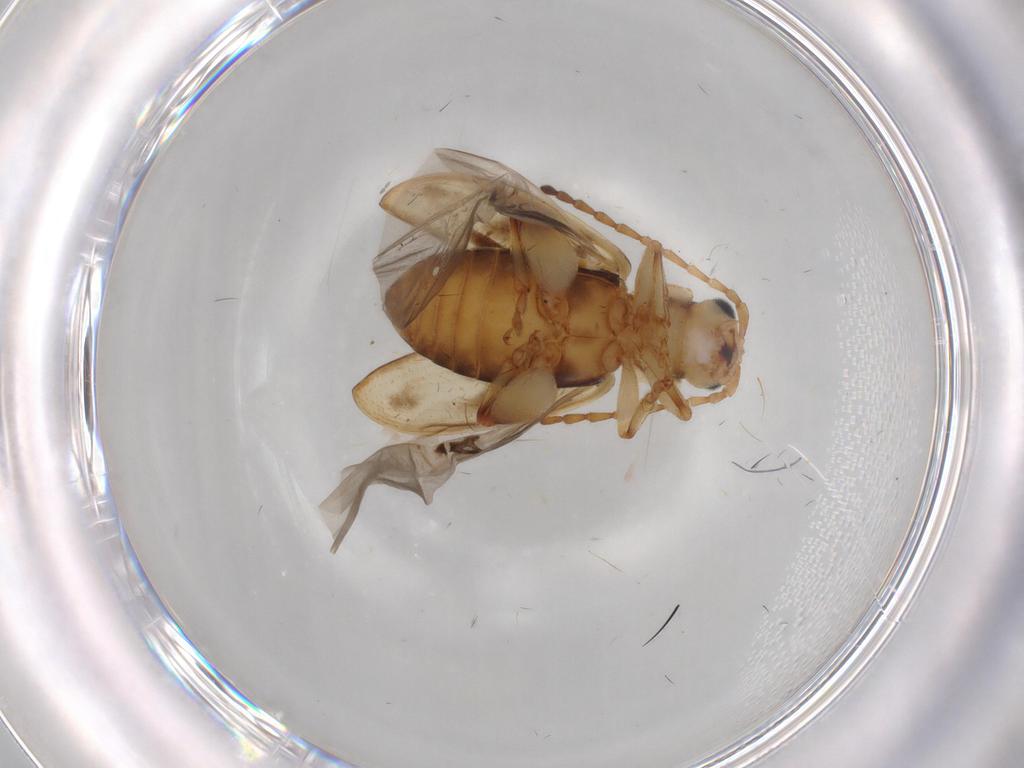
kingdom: Animalia
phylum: Arthropoda
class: Insecta
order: Coleoptera
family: Chrysomelidae
